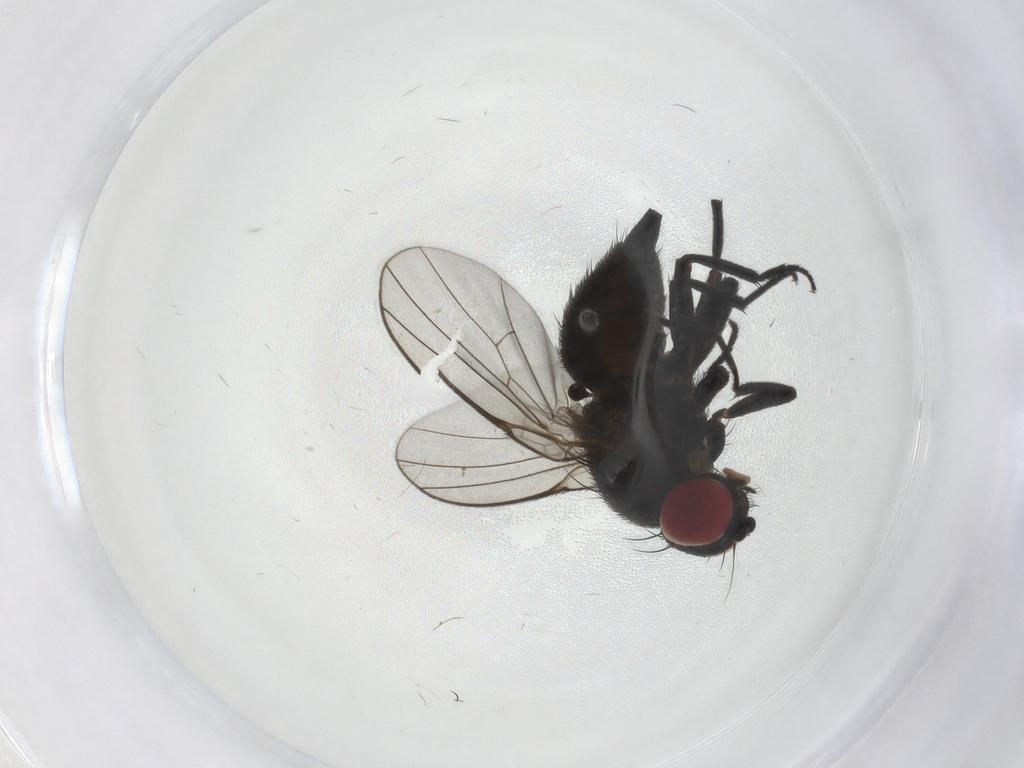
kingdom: Animalia
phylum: Arthropoda
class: Insecta
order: Diptera
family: Agromyzidae
